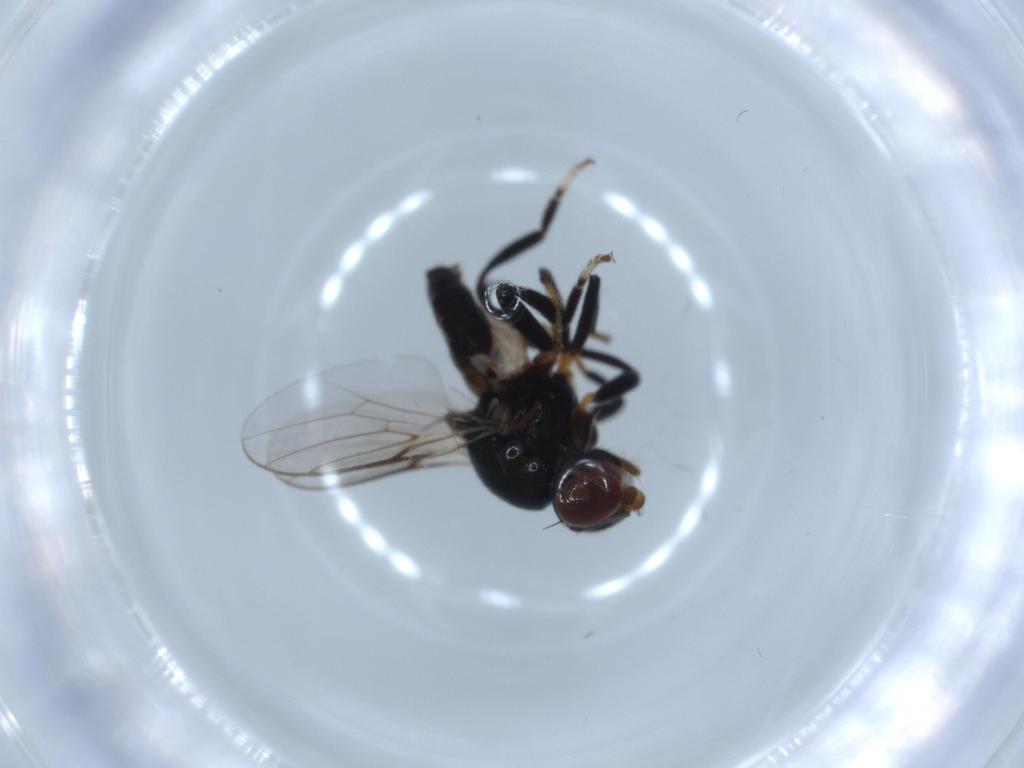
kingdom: Animalia
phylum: Arthropoda
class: Insecta
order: Diptera
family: Chloropidae
